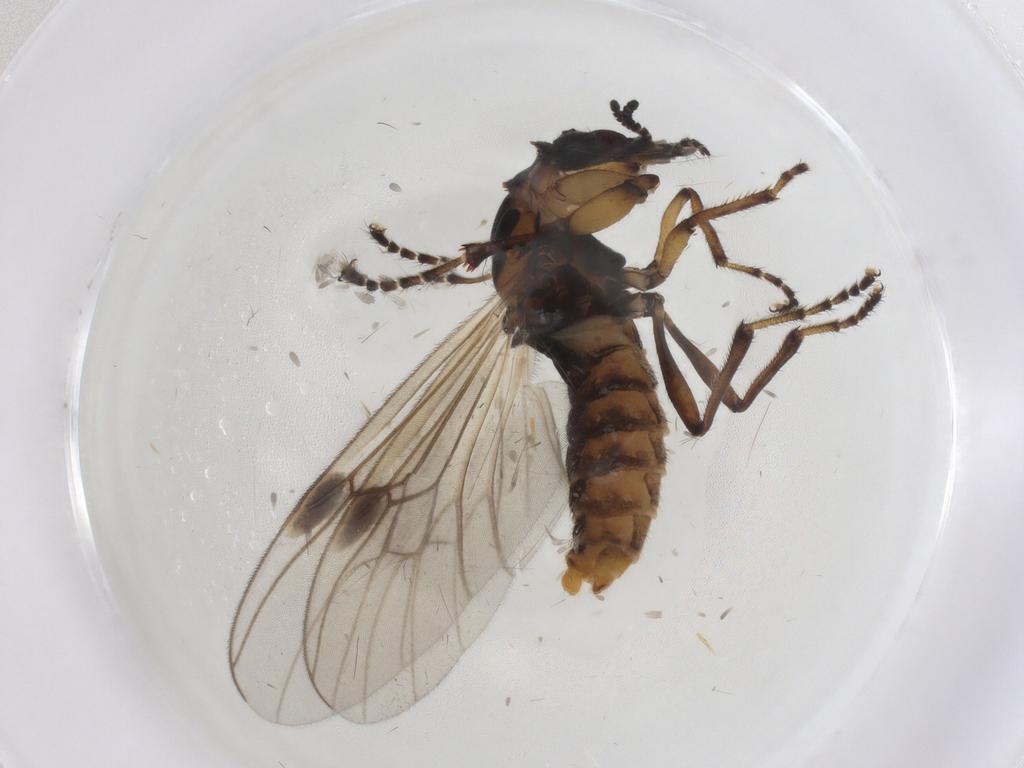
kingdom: Animalia
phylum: Arthropoda
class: Insecta
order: Diptera
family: Bibionidae
